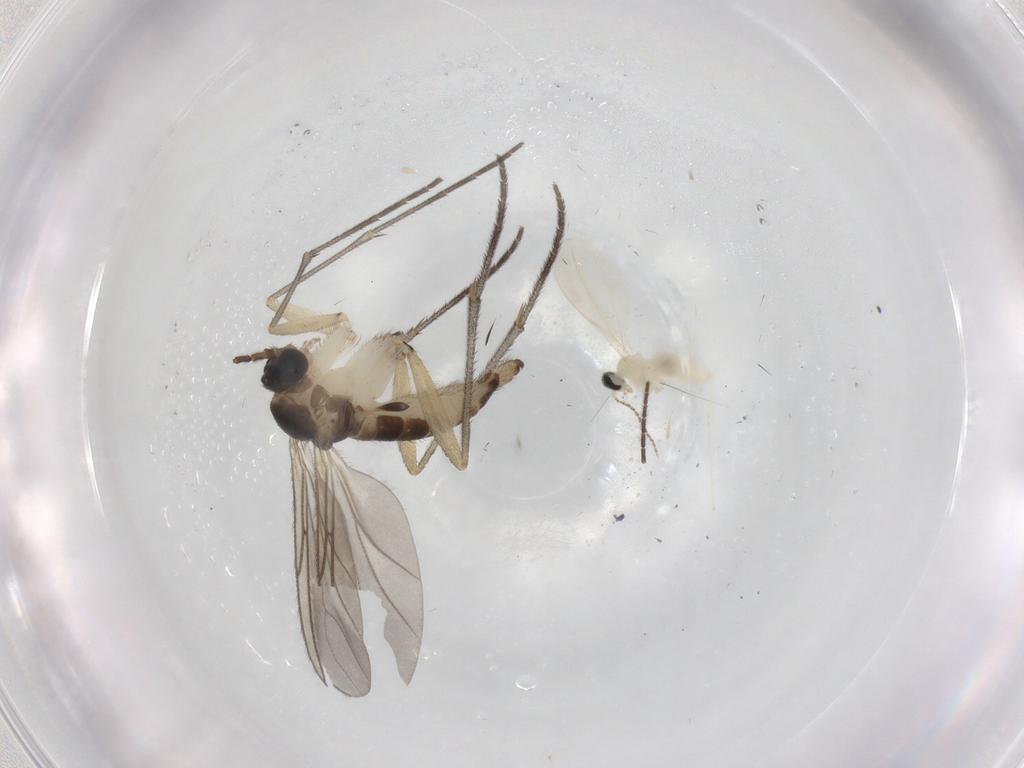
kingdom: Animalia
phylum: Arthropoda
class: Insecta
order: Diptera
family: Sciaridae
